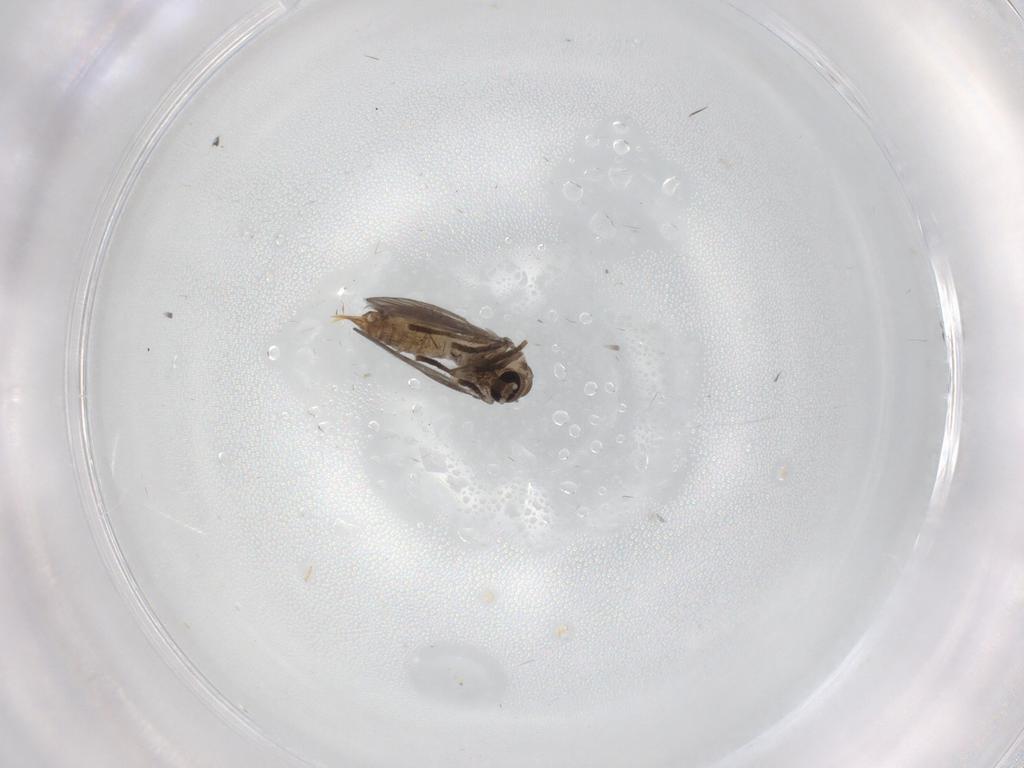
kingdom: Animalia
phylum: Arthropoda
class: Insecta
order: Diptera
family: Psychodidae
